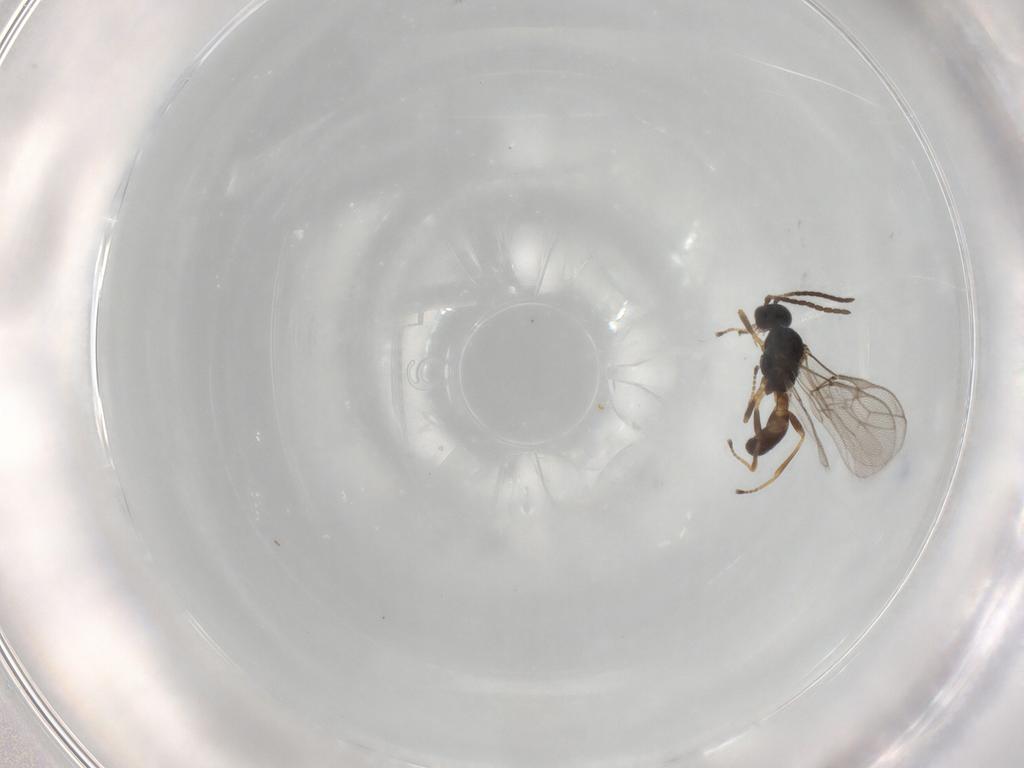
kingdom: Animalia
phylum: Arthropoda
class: Insecta
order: Hymenoptera
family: Braconidae
